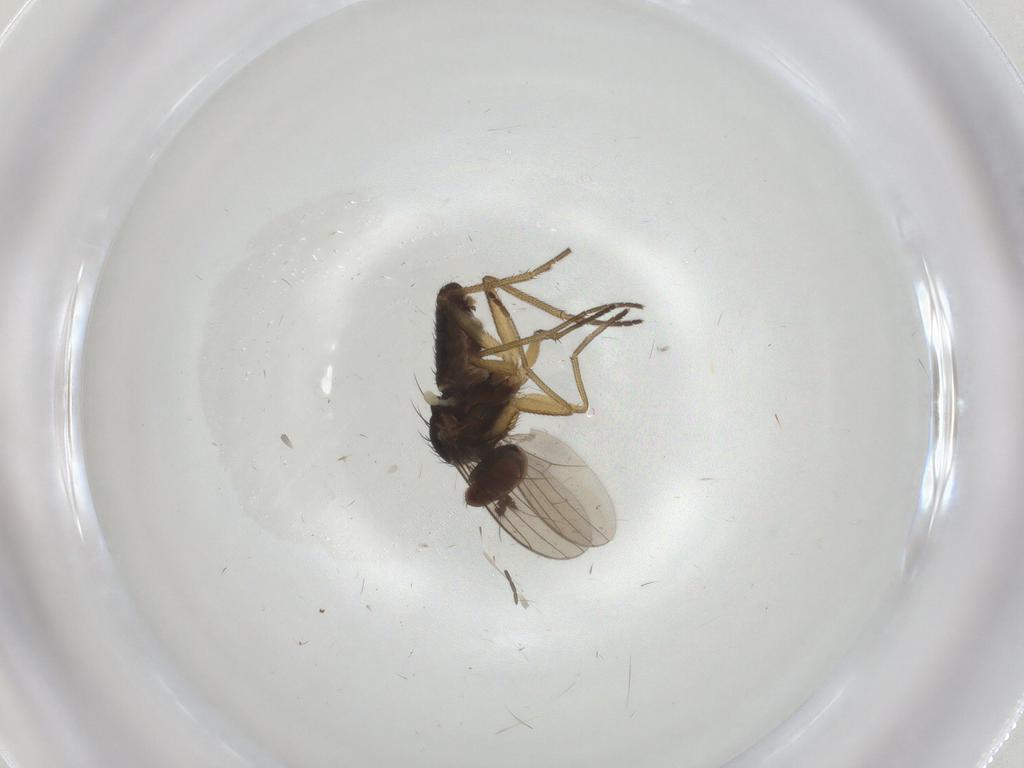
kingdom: Animalia
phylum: Arthropoda
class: Insecta
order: Diptera
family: Dolichopodidae
